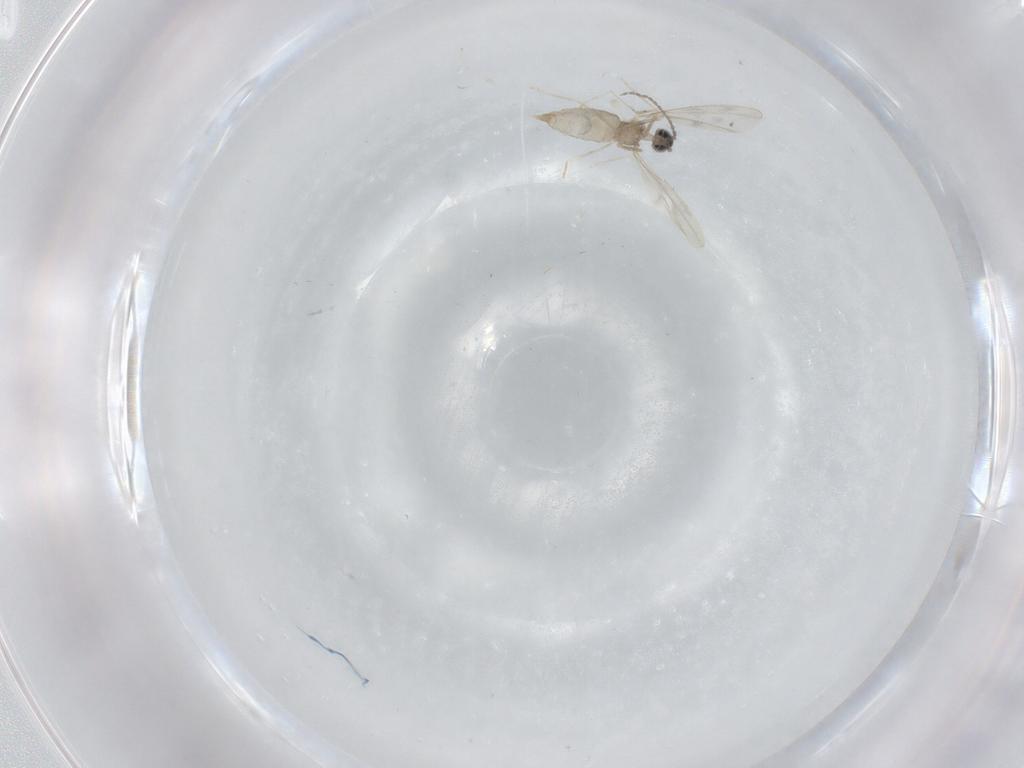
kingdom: Animalia
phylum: Arthropoda
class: Insecta
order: Diptera
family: Cecidomyiidae
